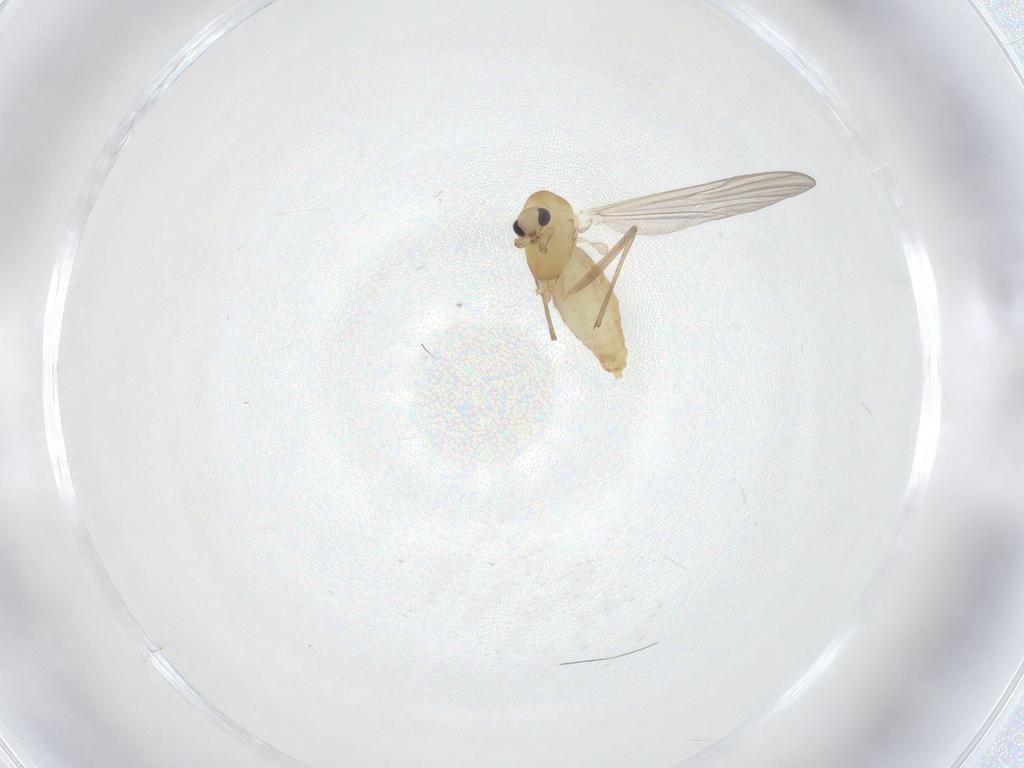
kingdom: Animalia
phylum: Arthropoda
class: Insecta
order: Diptera
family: Chironomidae
